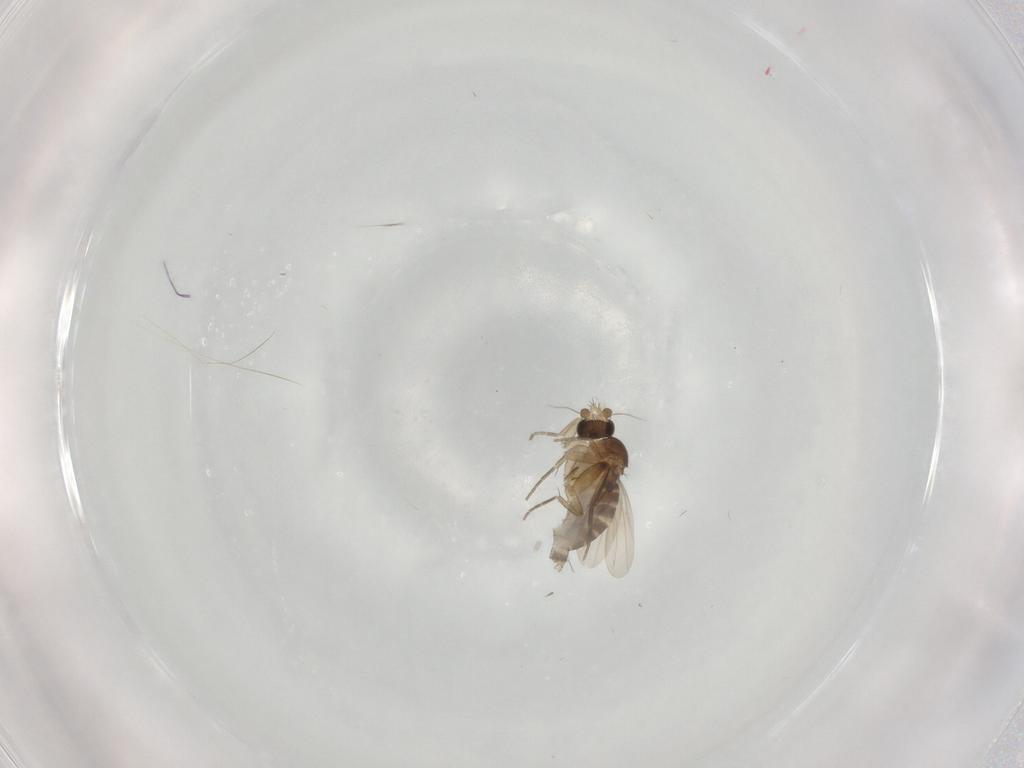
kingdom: Animalia
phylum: Arthropoda
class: Insecta
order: Diptera
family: Phoridae
